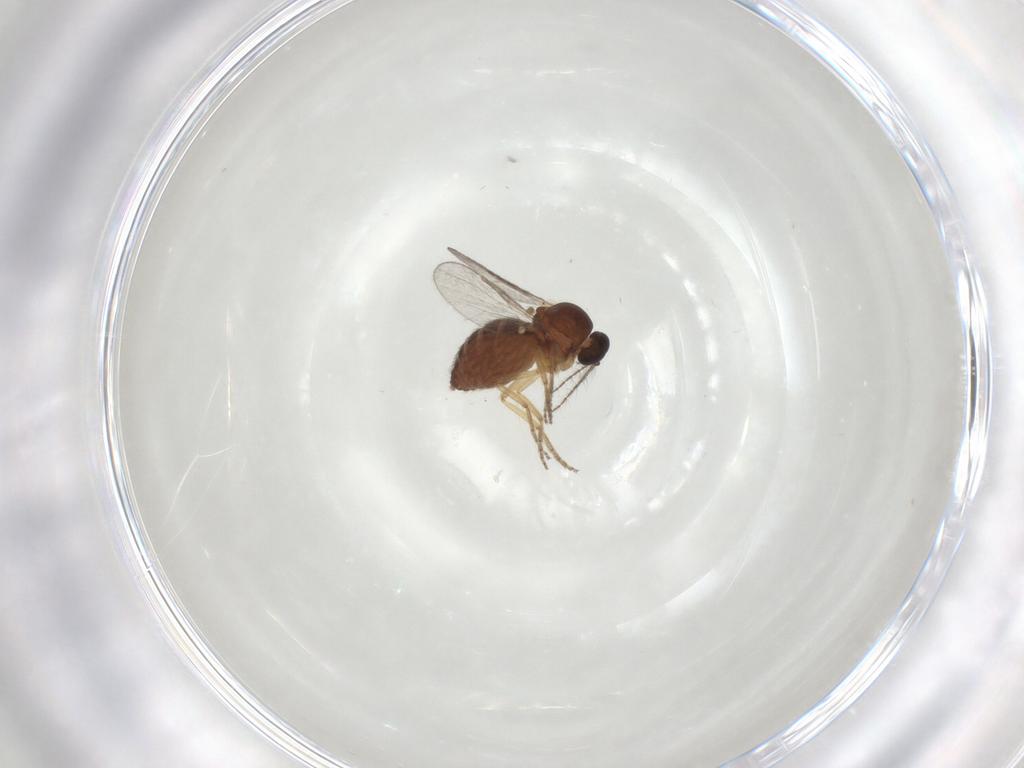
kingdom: Animalia
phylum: Arthropoda
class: Insecta
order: Diptera
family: Ceratopogonidae
